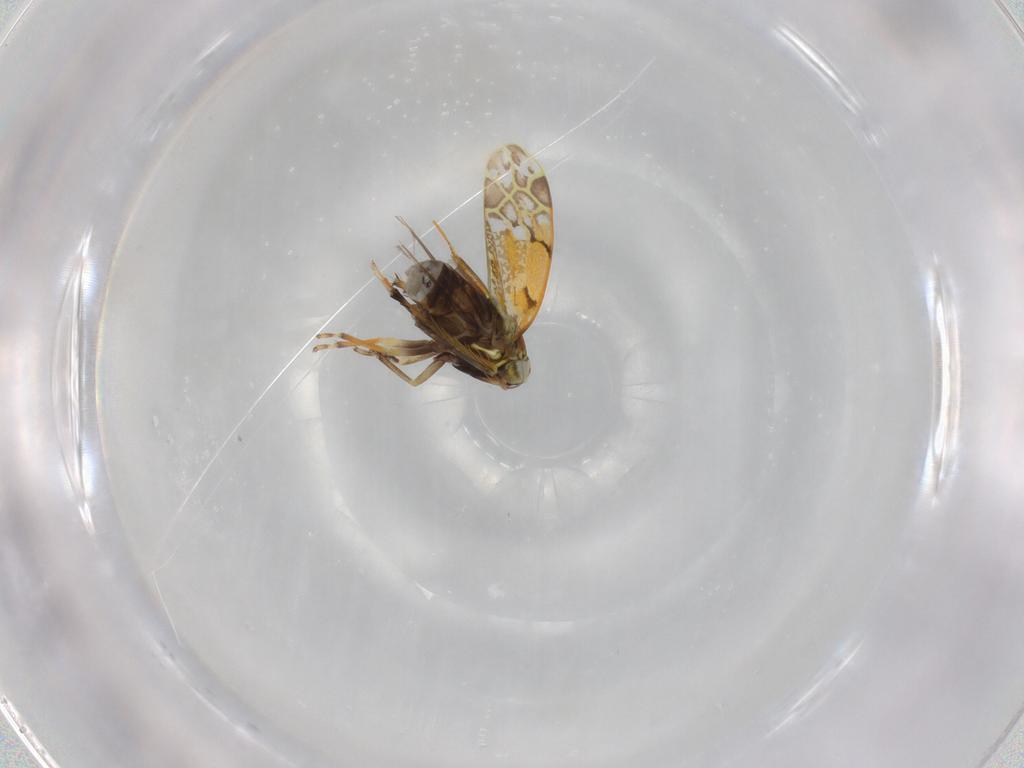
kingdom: Animalia
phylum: Arthropoda
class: Insecta
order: Hemiptera
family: Cicadellidae
